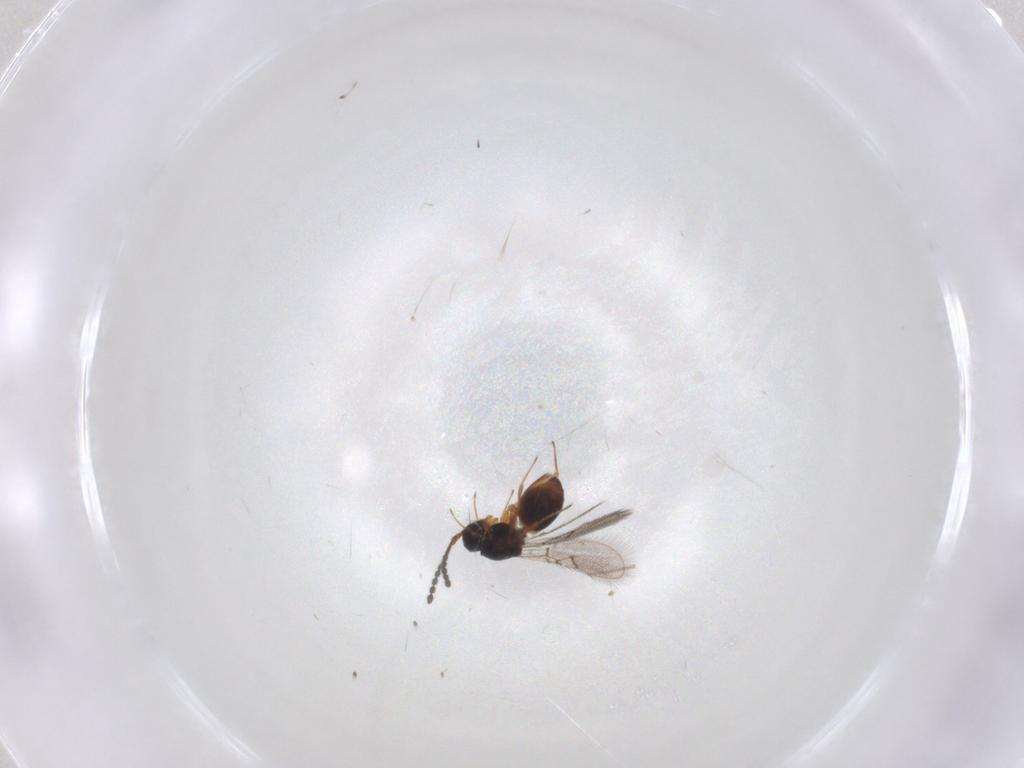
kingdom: Animalia
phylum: Arthropoda
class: Insecta
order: Hymenoptera
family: Figitidae
